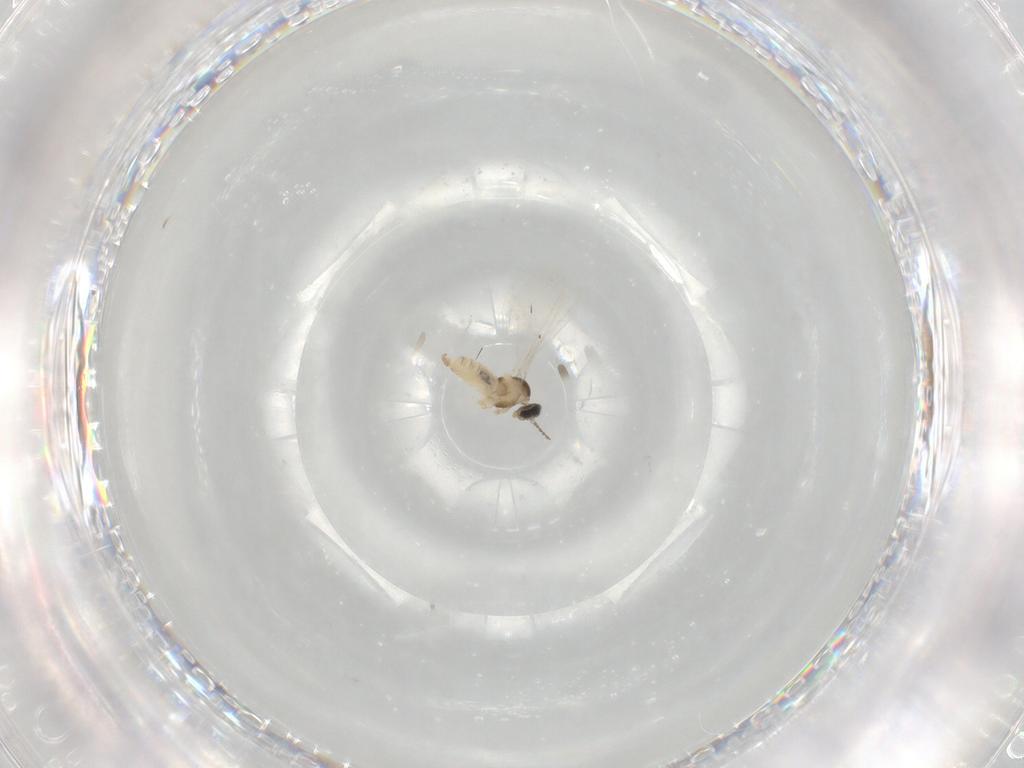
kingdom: Animalia
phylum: Arthropoda
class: Insecta
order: Diptera
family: Cecidomyiidae
